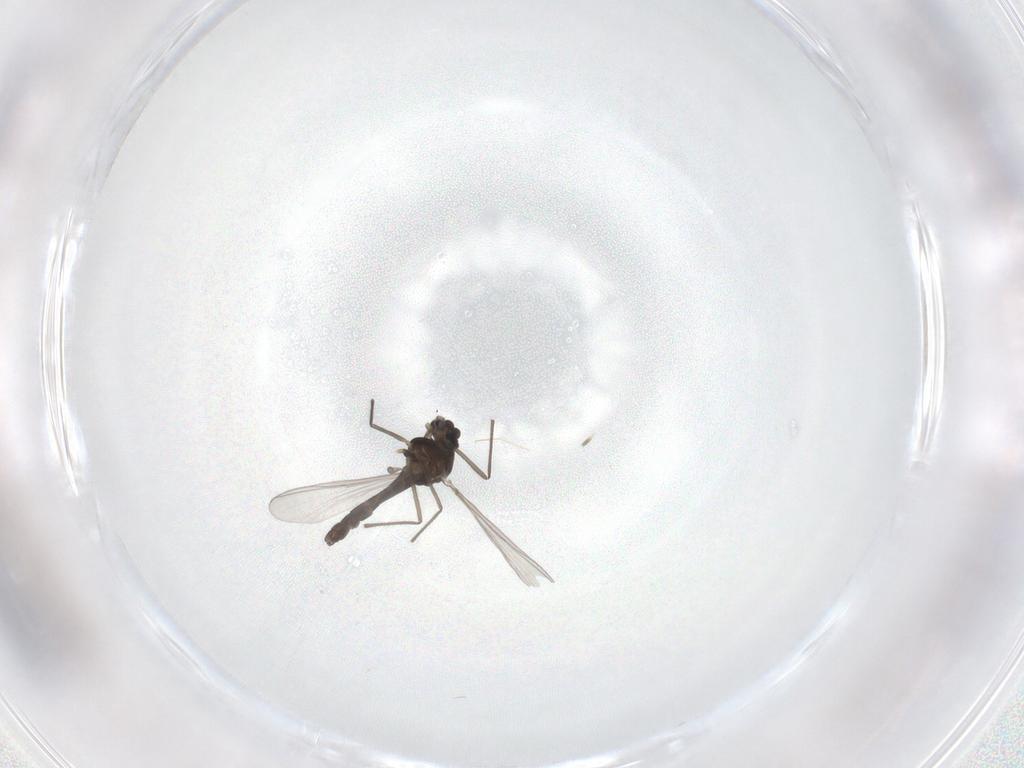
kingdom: Animalia
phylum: Arthropoda
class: Insecta
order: Diptera
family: Chironomidae
